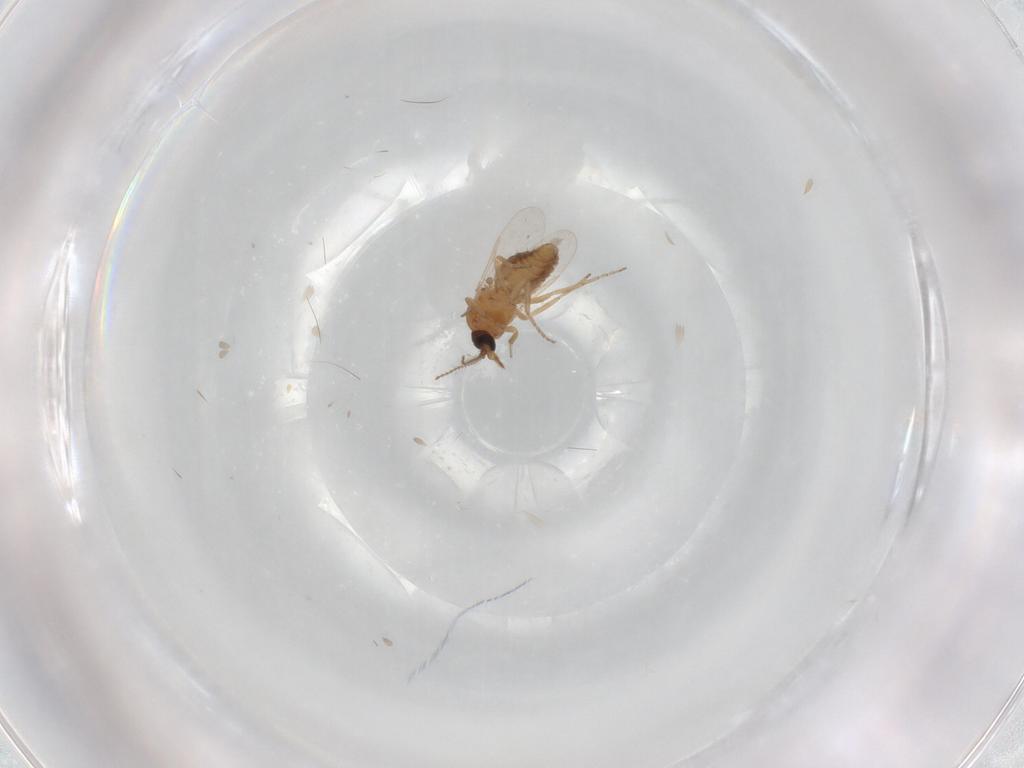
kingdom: Animalia
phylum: Arthropoda
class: Insecta
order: Diptera
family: Ceratopogonidae
